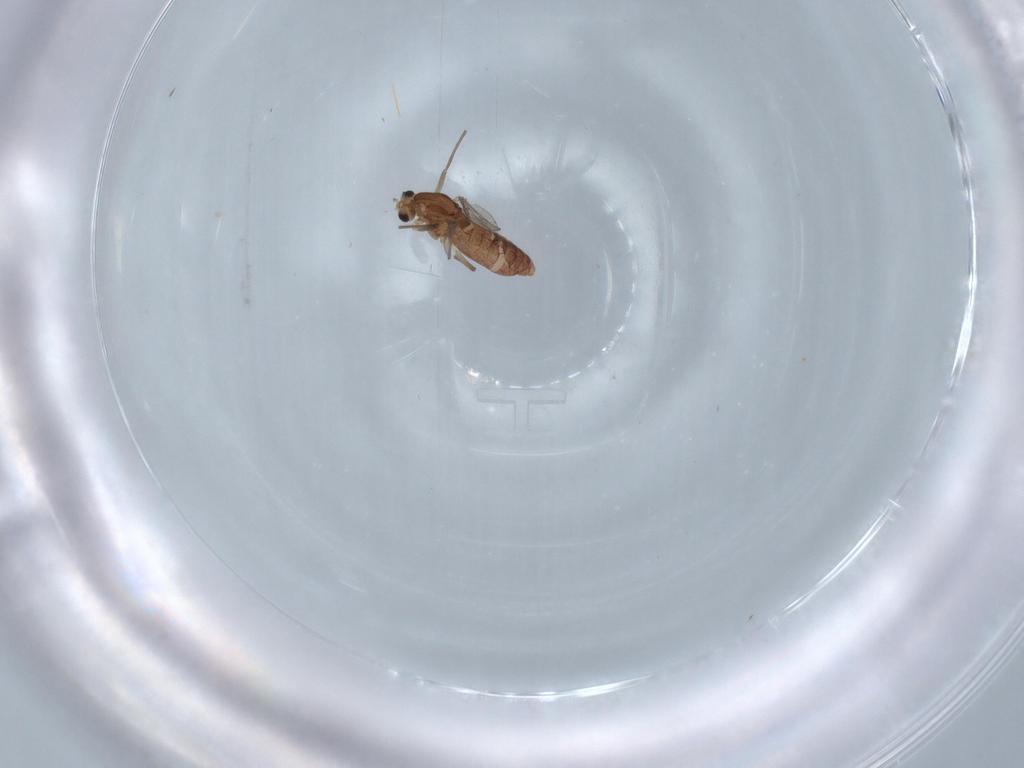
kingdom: Animalia
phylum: Arthropoda
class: Insecta
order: Diptera
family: Chironomidae
